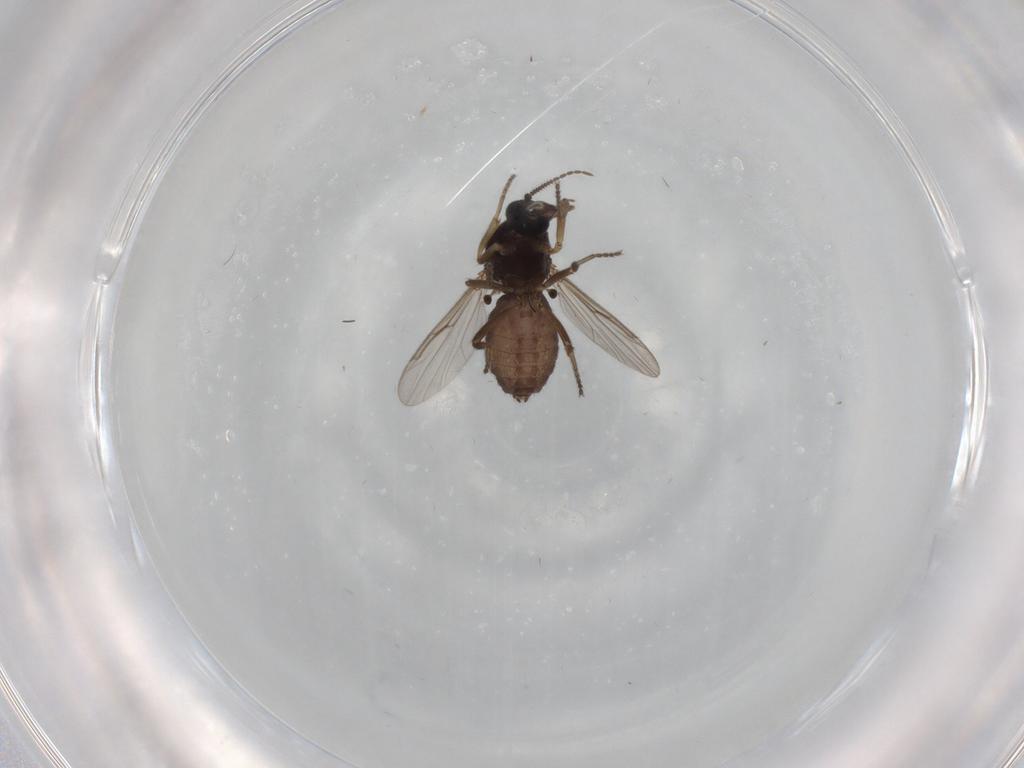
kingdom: Animalia
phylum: Arthropoda
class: Insecta
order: Diptera
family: Ceratopogonidae
